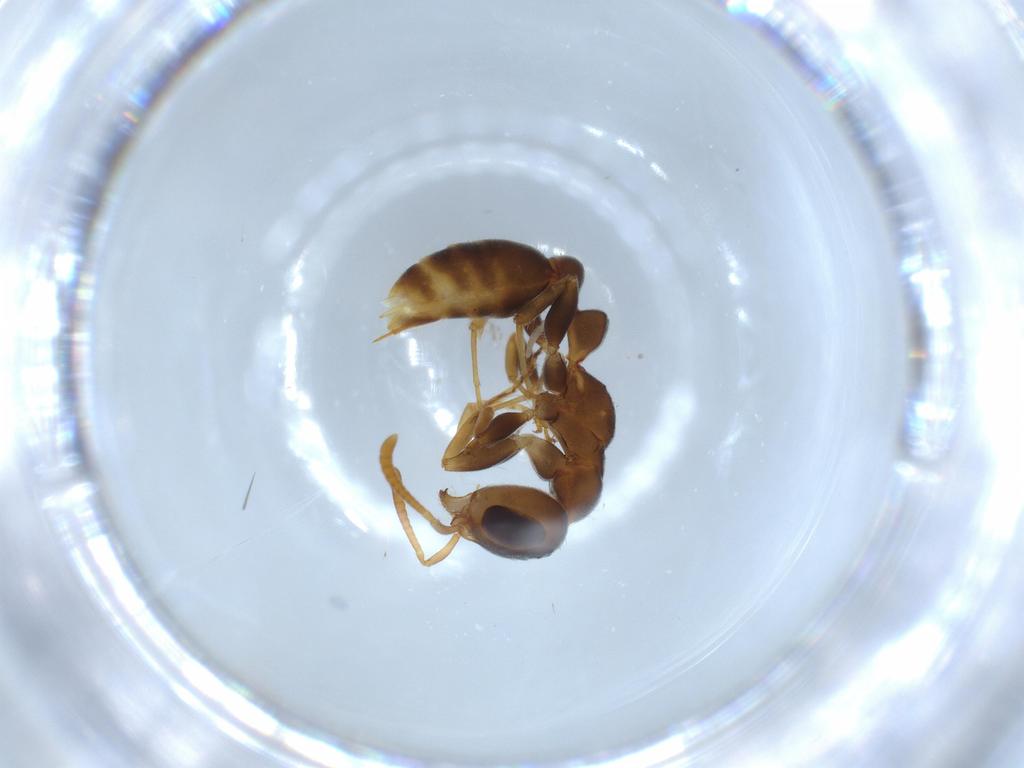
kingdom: Animalia
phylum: Arthropoda
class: Insecta
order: Hymenoptera
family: Formicidae
